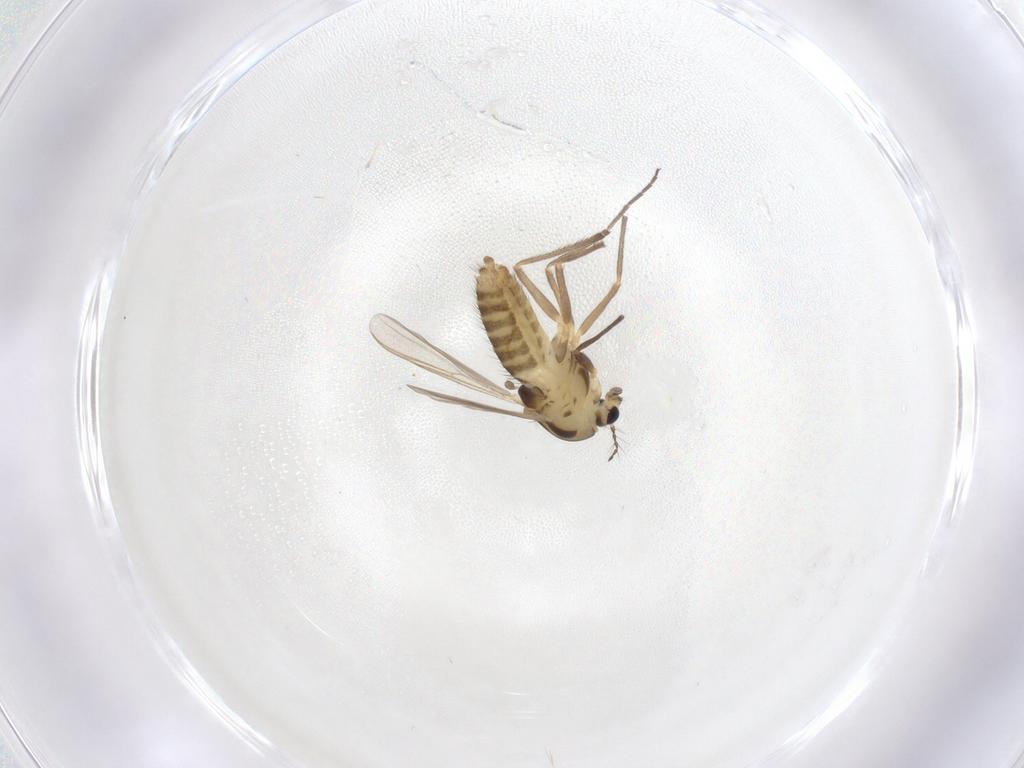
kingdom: Animalia
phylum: Arthropoda
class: Insecta
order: Diptera
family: Chironomidae
